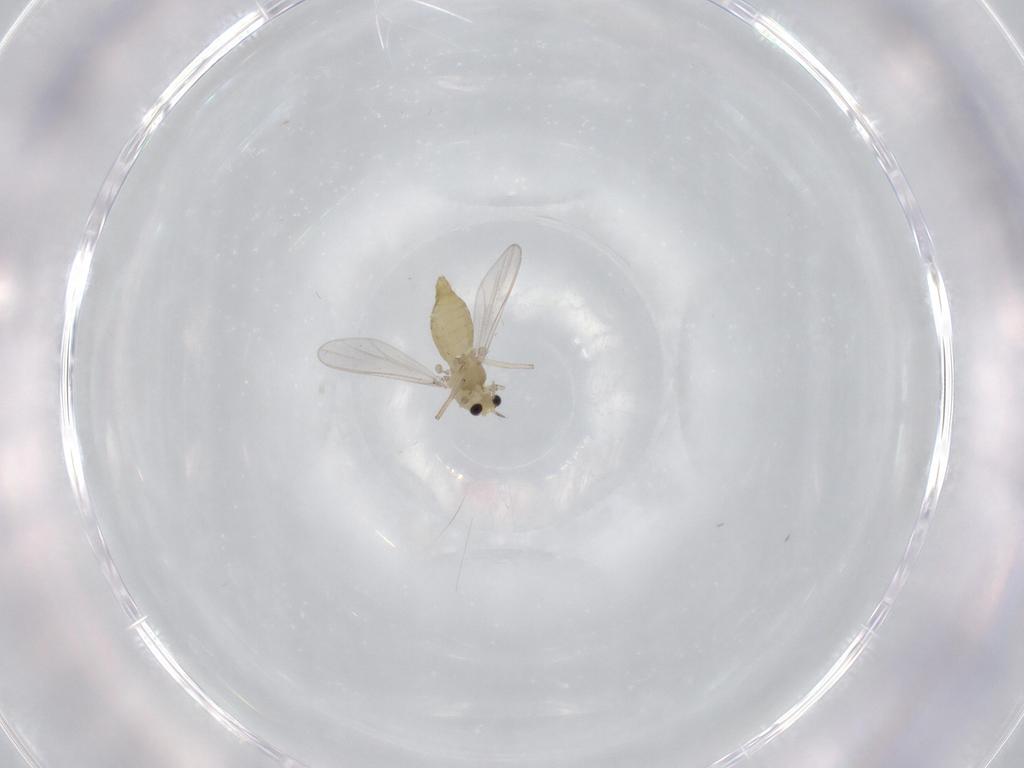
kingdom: Animalia
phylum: Arthropoda
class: Insecta
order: Diptera
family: Chironomidae
